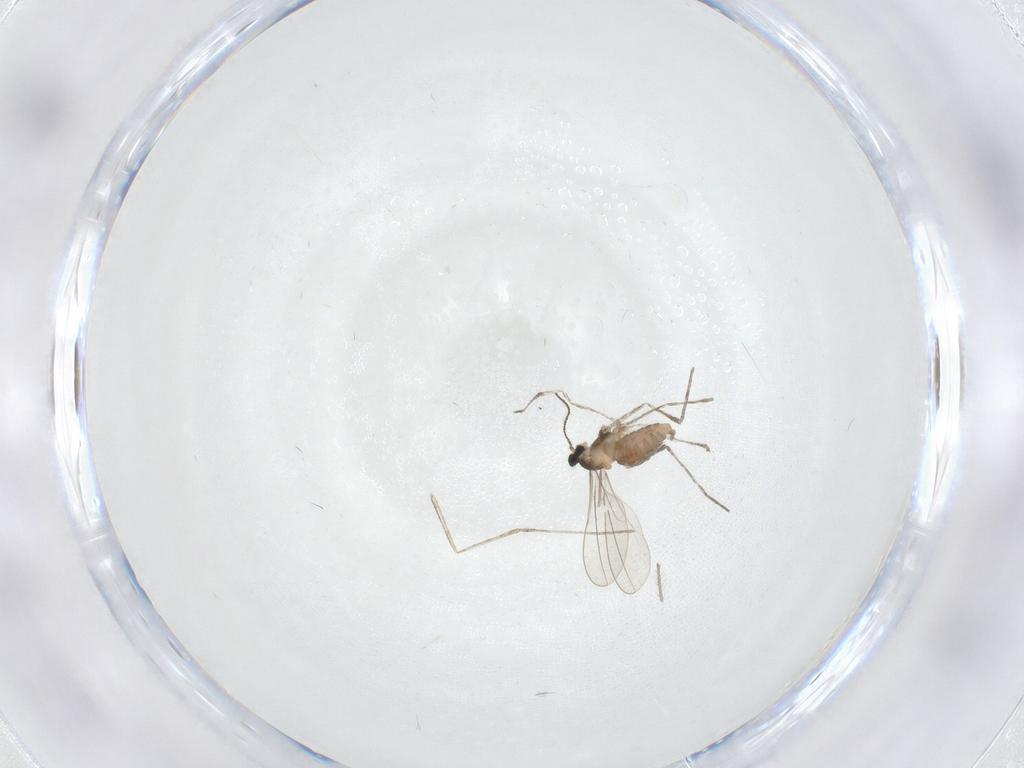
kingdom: Animalia
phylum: Arthropoda
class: Insecta
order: Diptera
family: Cecidomyiidae
